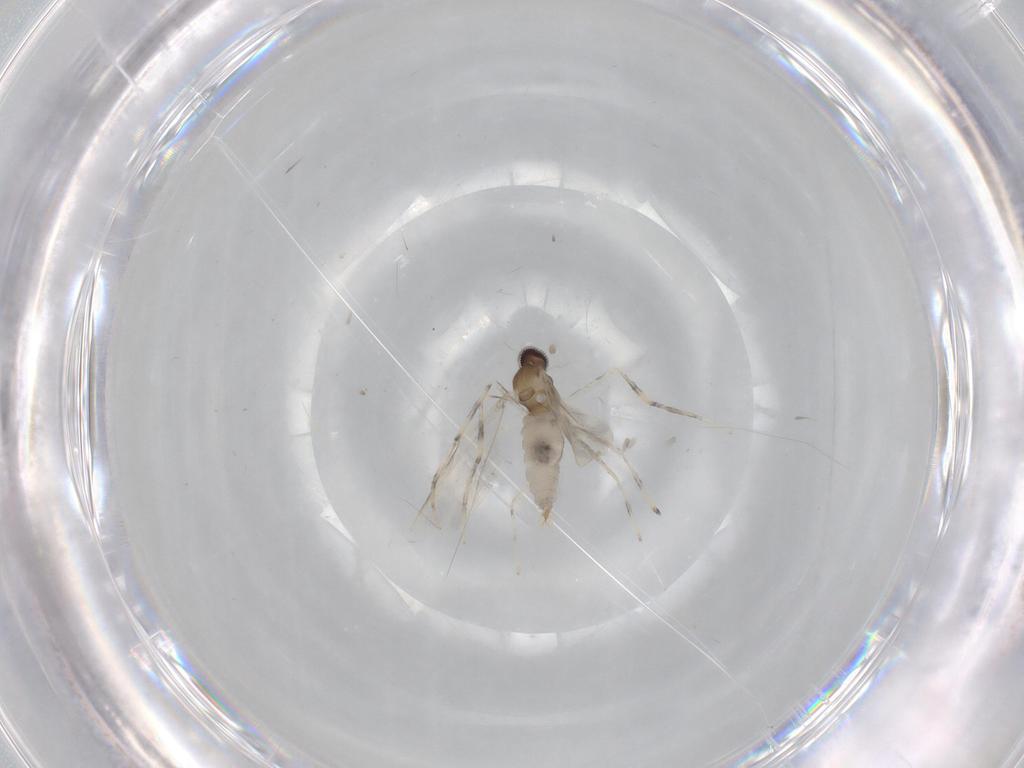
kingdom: Animalia
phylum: Arthropoda
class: Insecta
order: Diptera
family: Cecidomyiidae
